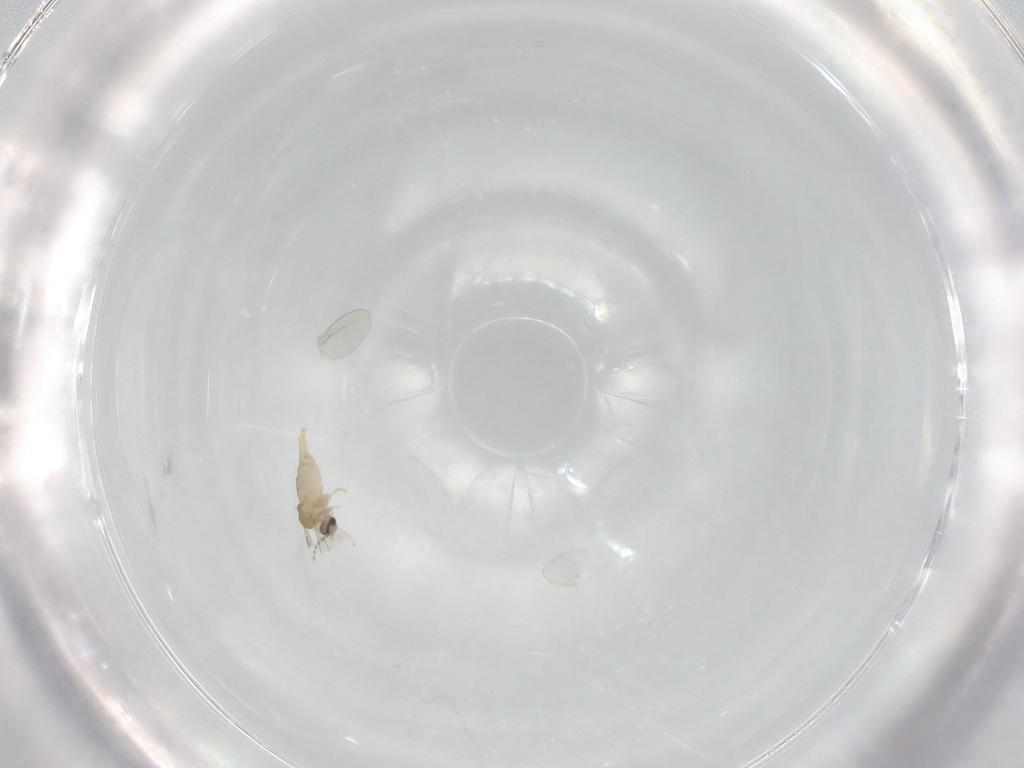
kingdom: Animalia
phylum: Arthropoda
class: Insecta
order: Diptera
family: Cecidomyiidae
